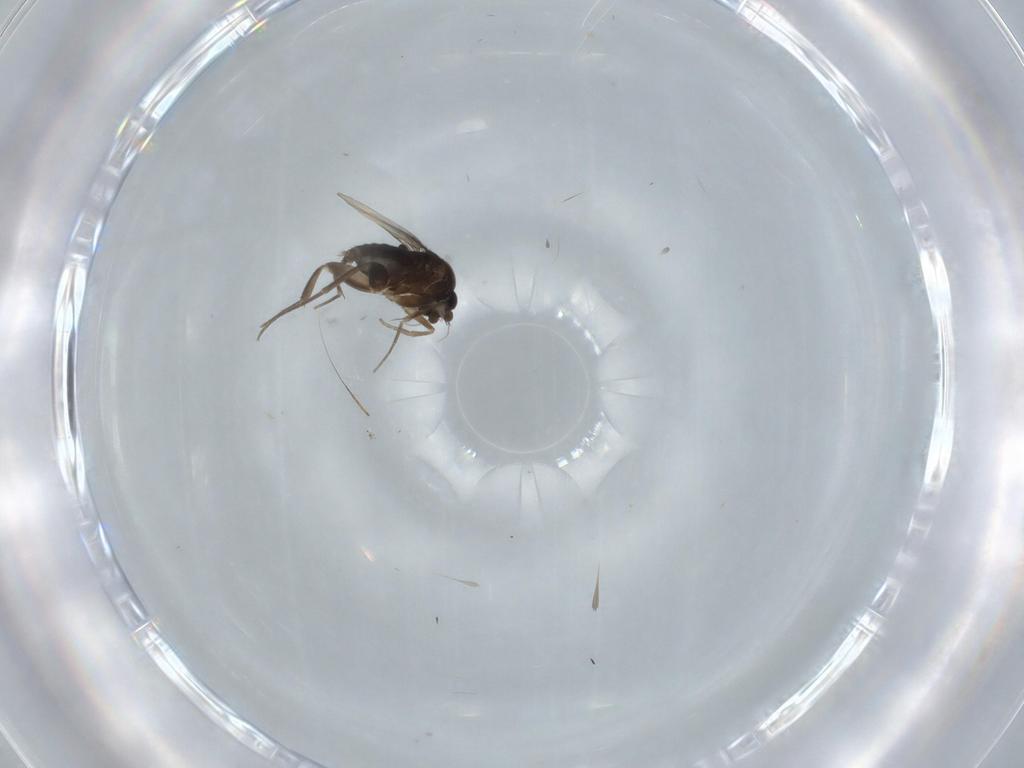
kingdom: Animalia
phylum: Arthropoda
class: Insecta
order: Diptera
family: Phoridae
